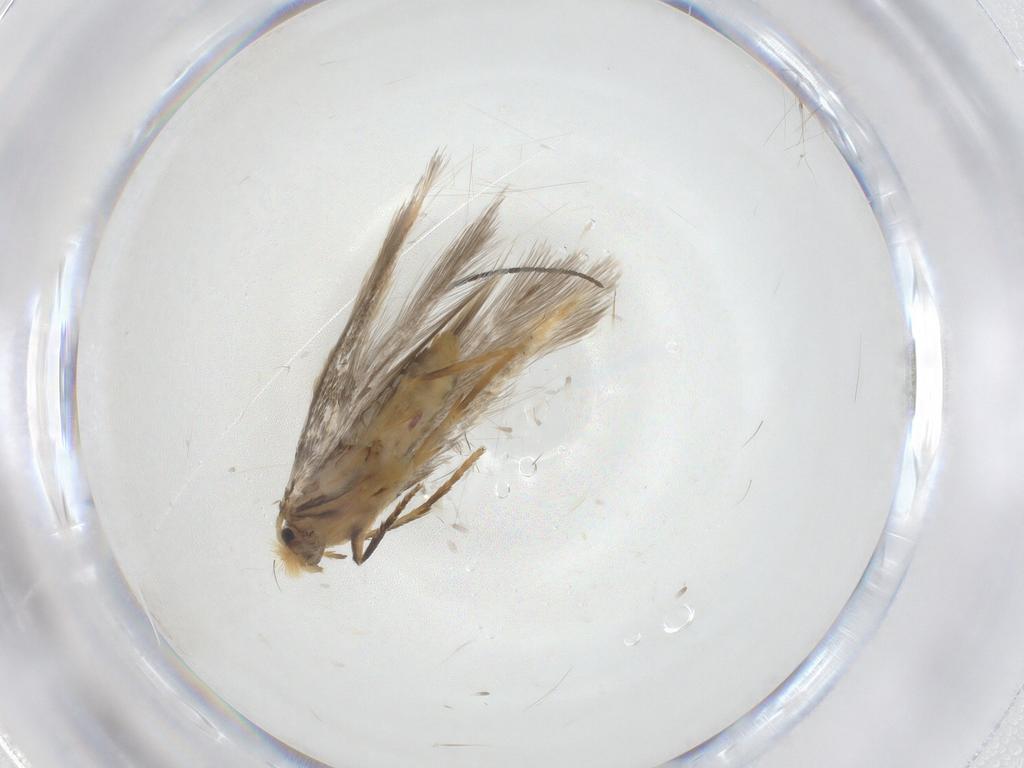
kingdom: Animalia
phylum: Arthropoda
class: Insecta
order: Lepidoptera
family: Nepticulidae
